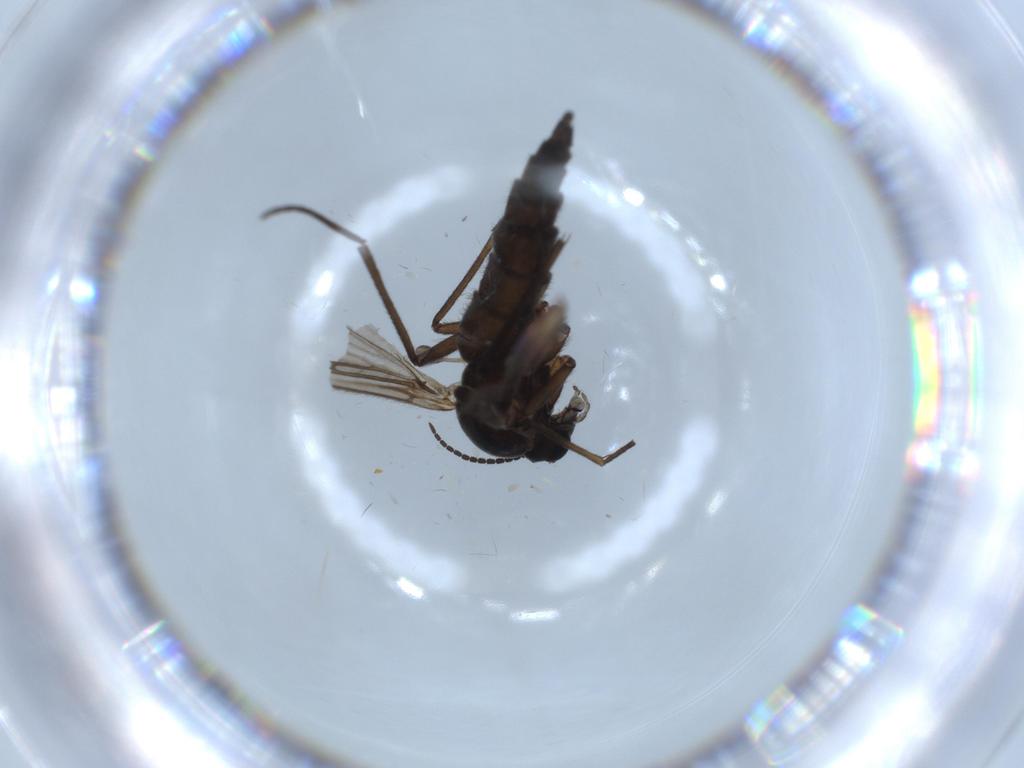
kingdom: Animalia
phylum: Arthropoda
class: Insecta
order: Diptera
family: Sciaridae
